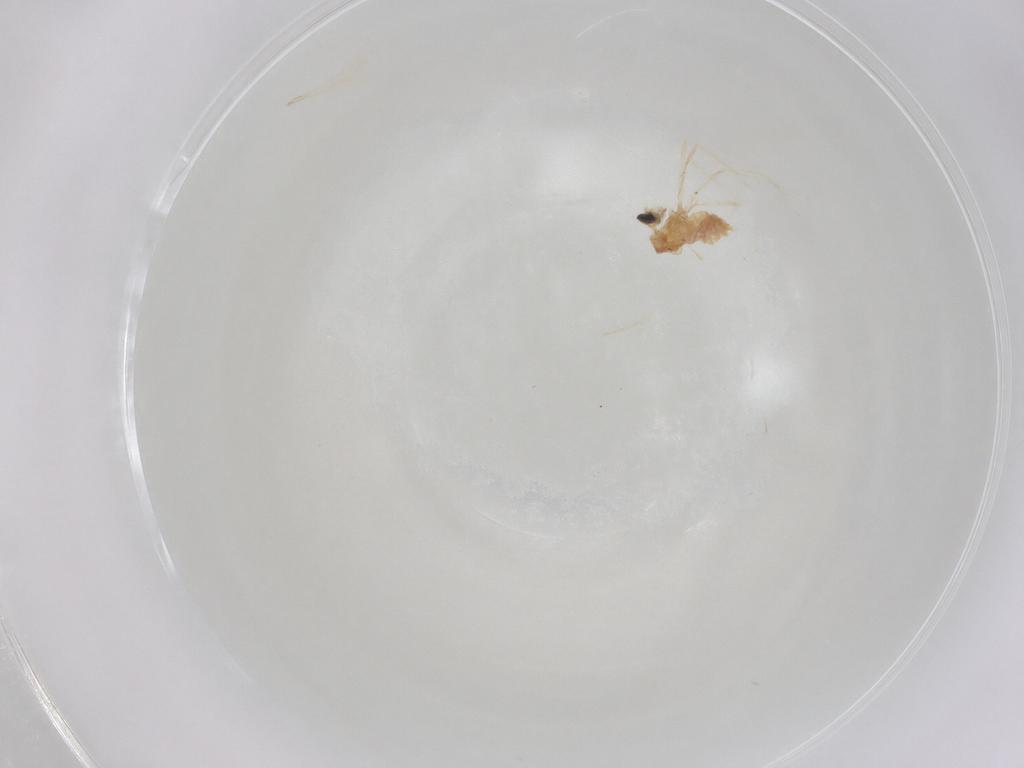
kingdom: Animalia
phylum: Arthropoda
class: Insecta
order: Diptera
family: Cecidomyiidae
